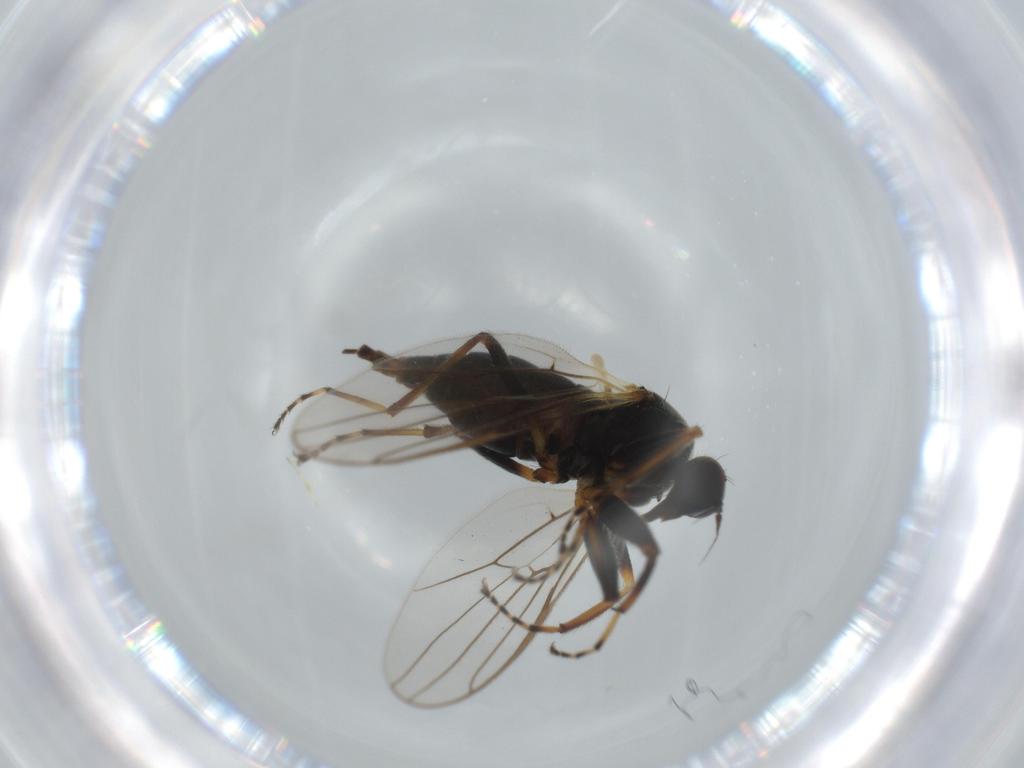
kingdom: Animalia
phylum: Arthropoda
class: Insecta
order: Diptera
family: Hybotidae
